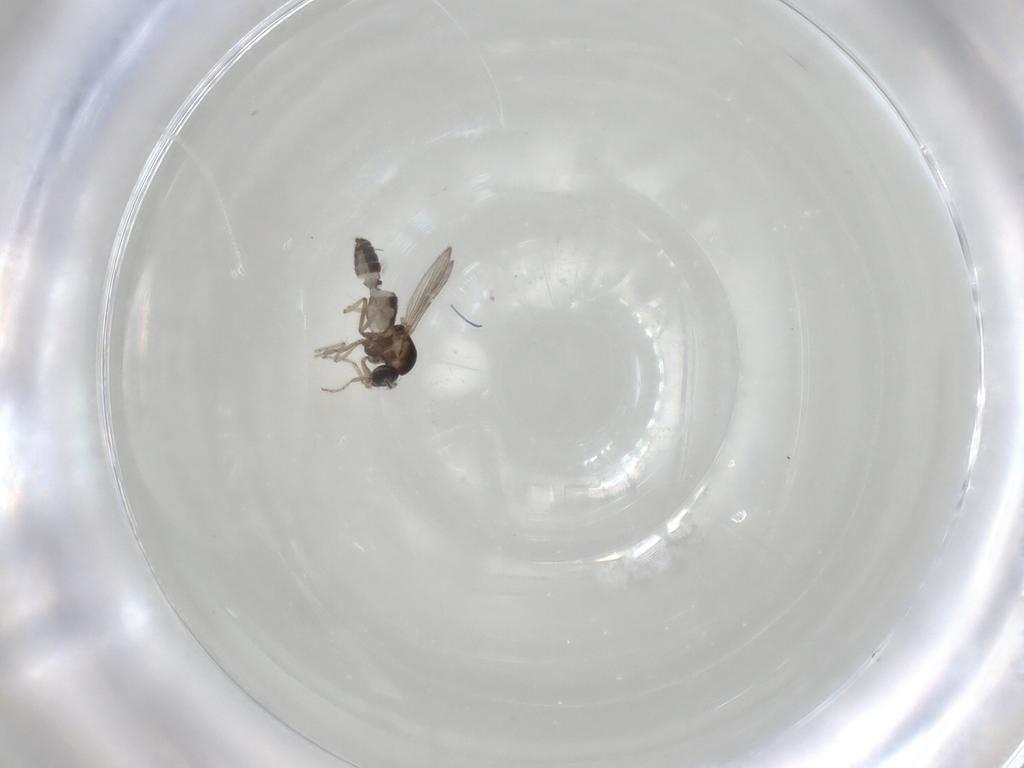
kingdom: Animalia
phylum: Arthropoda
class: Insecta
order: Diptera
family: Ceratopogonidae
